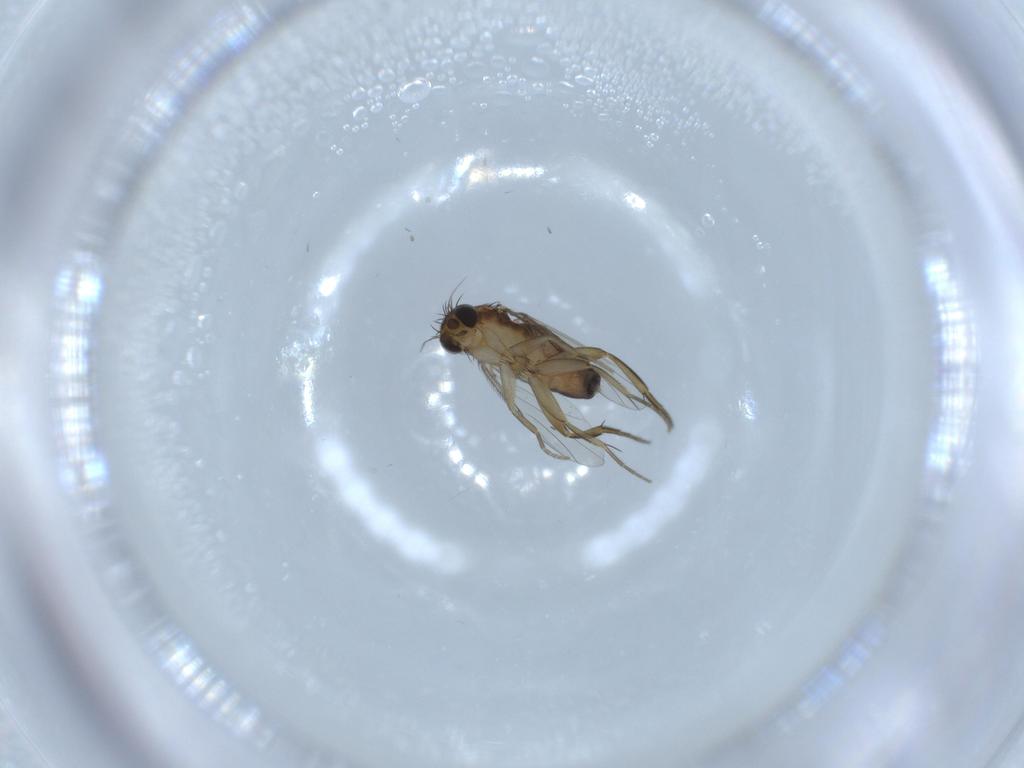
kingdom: Animalia
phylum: Arthropoda
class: Insecta
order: Diptera
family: Phoridae
